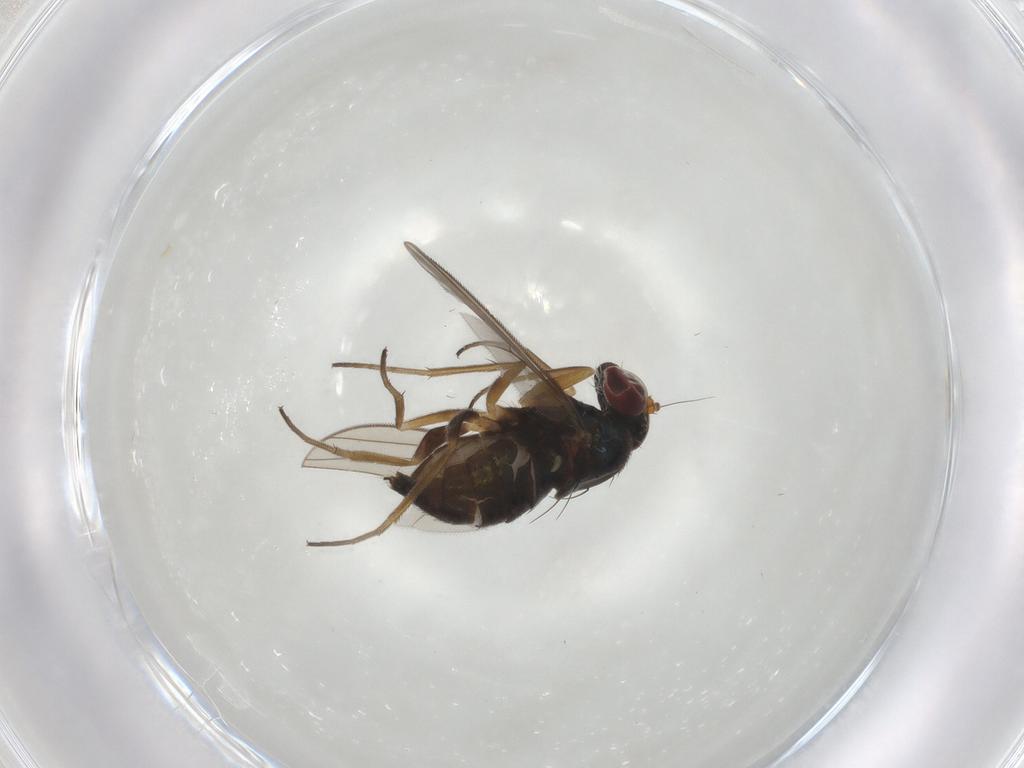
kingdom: Animalia
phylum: Arthropoda
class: Insecta
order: Diptera
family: Dolichopodidae
